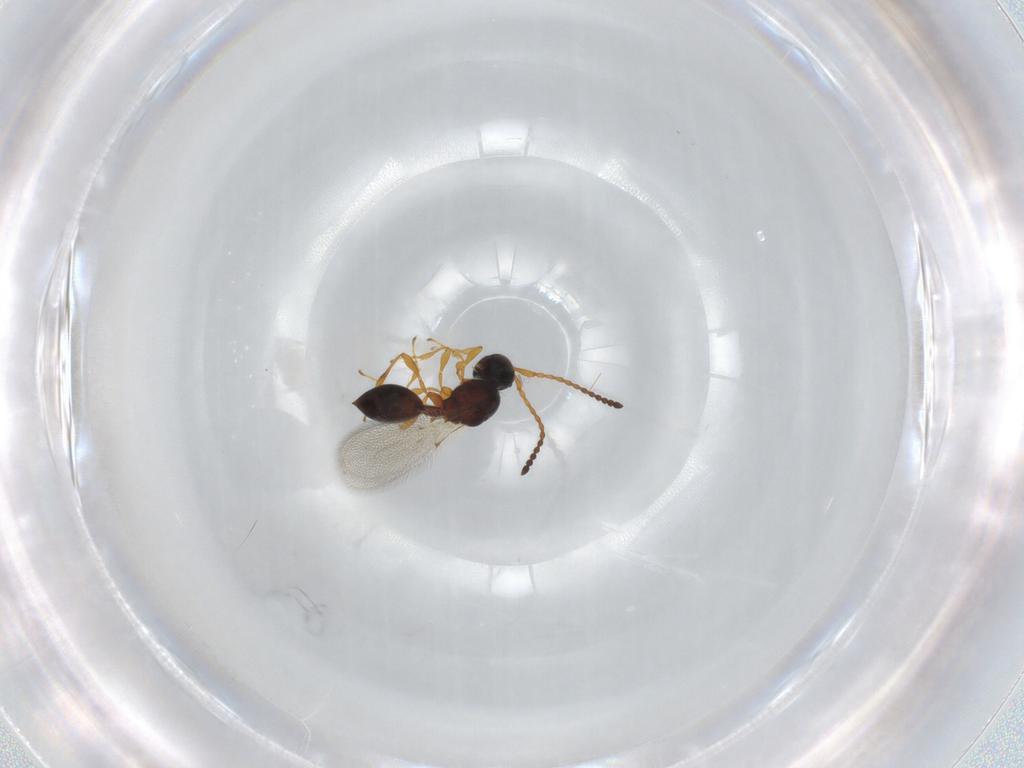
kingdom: Animalia
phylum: Arthropoda
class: Insecta
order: Hymenoptera
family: Diapriidae
